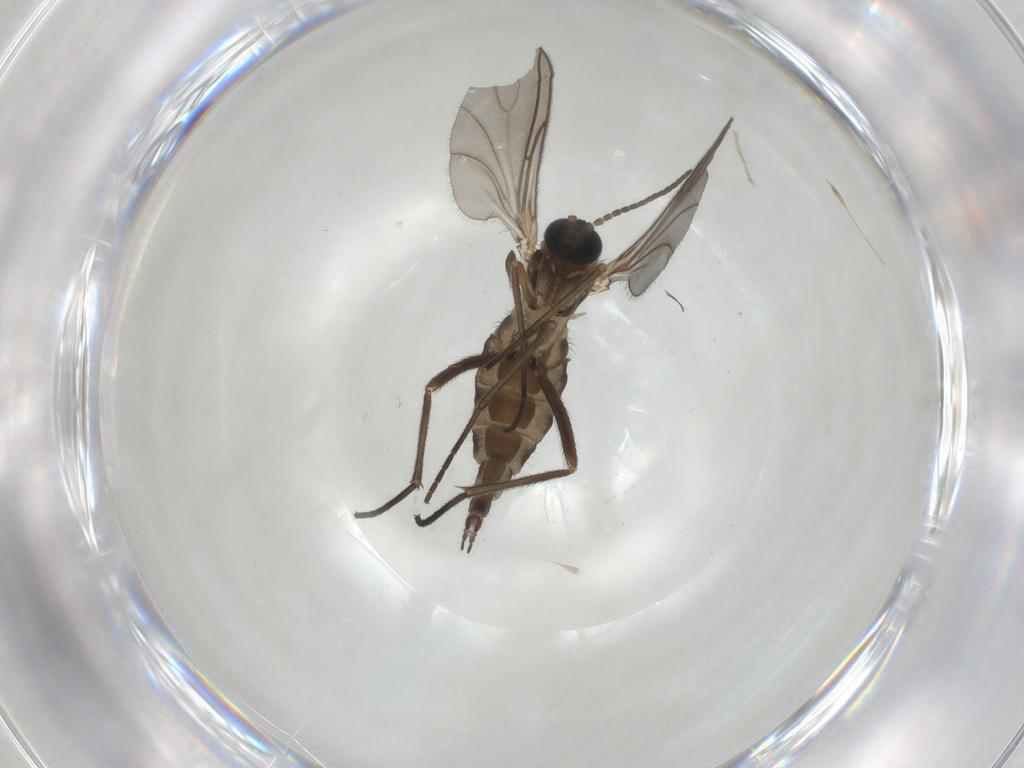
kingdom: Animalia
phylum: Arthropoda
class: Insecta
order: Diptera
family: Sciaridae
